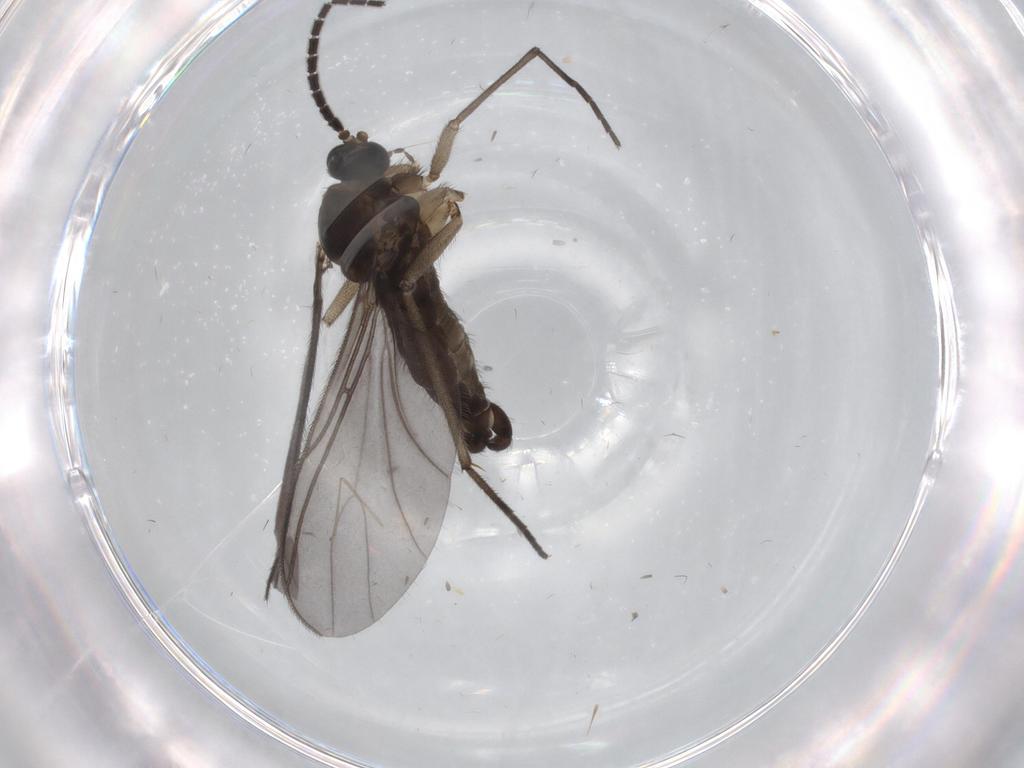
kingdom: Animalia
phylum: Arthropoda
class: Insecta
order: Diptera
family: Sciaridae
